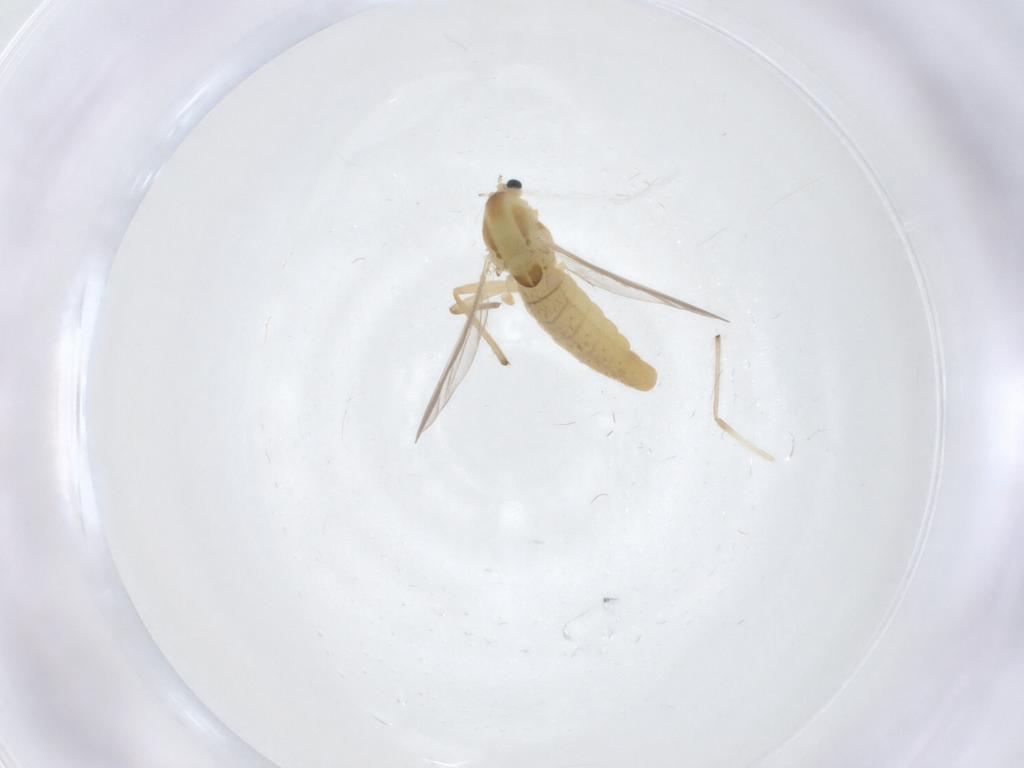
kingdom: Animalia
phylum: Arthropoda
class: Insecta
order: Diptera
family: Chironomidae
